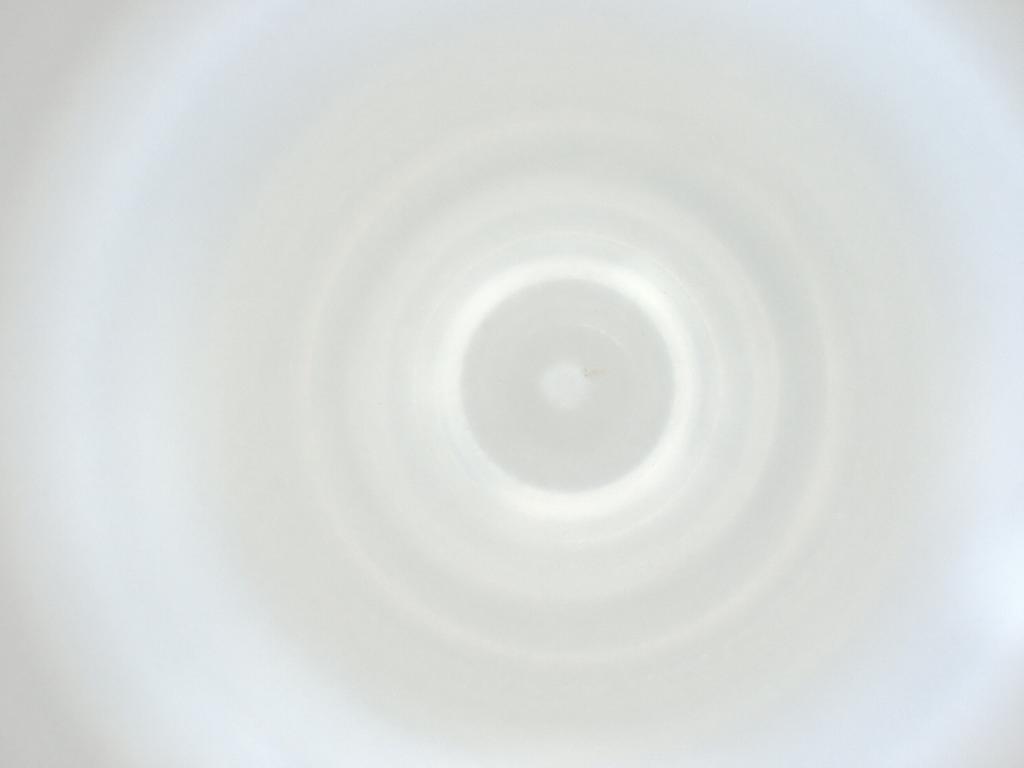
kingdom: Animalia
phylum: Arthropoda
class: Insecta
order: Diptera
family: Cecidomyiidae
